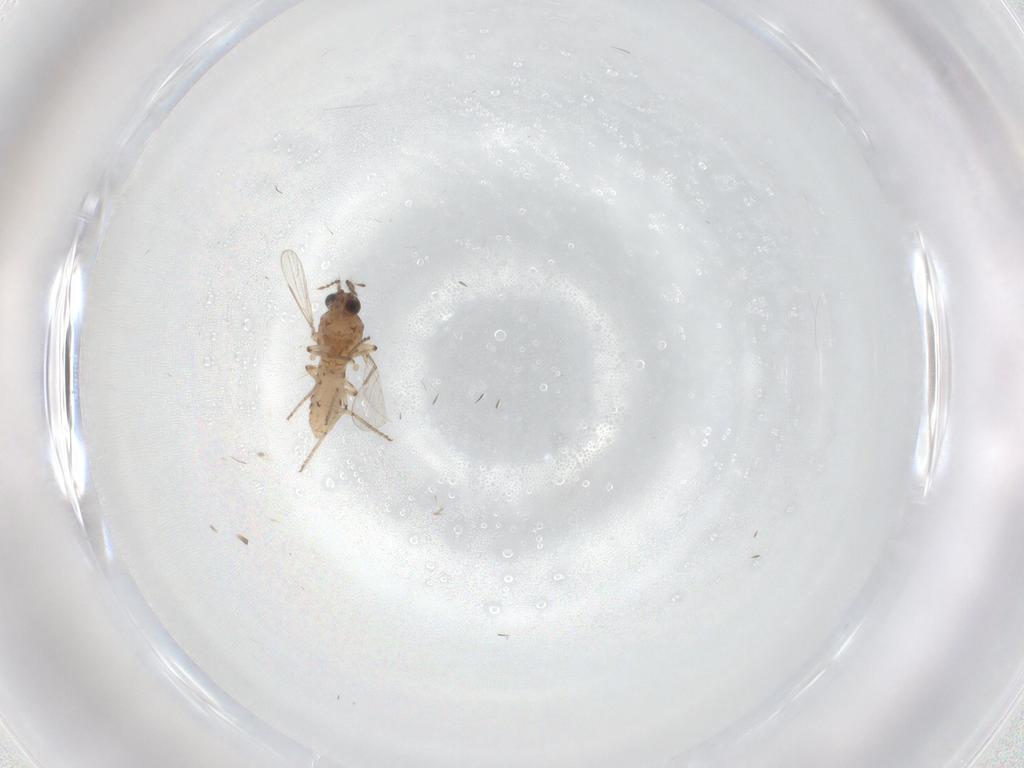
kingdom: Animalia
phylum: Arthropoda
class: Insecta
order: Diptera
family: Ceratopogonidae
